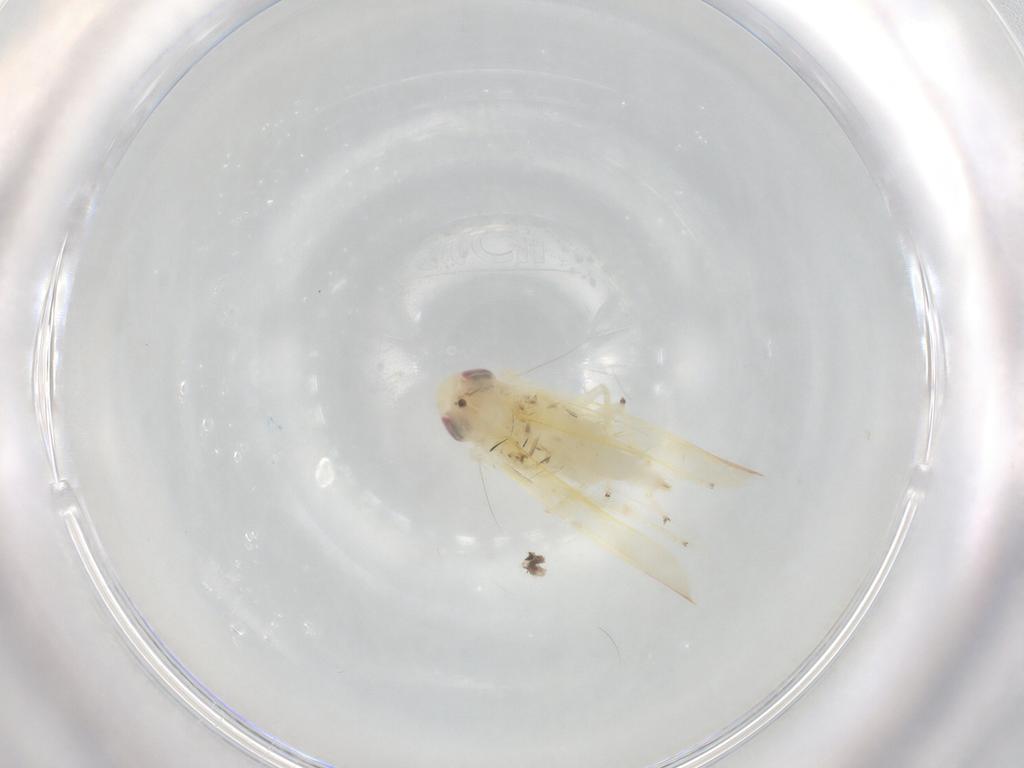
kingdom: Animalia
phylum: Arthropoda
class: Insecta
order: Hemiptera
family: Cicadellidae
